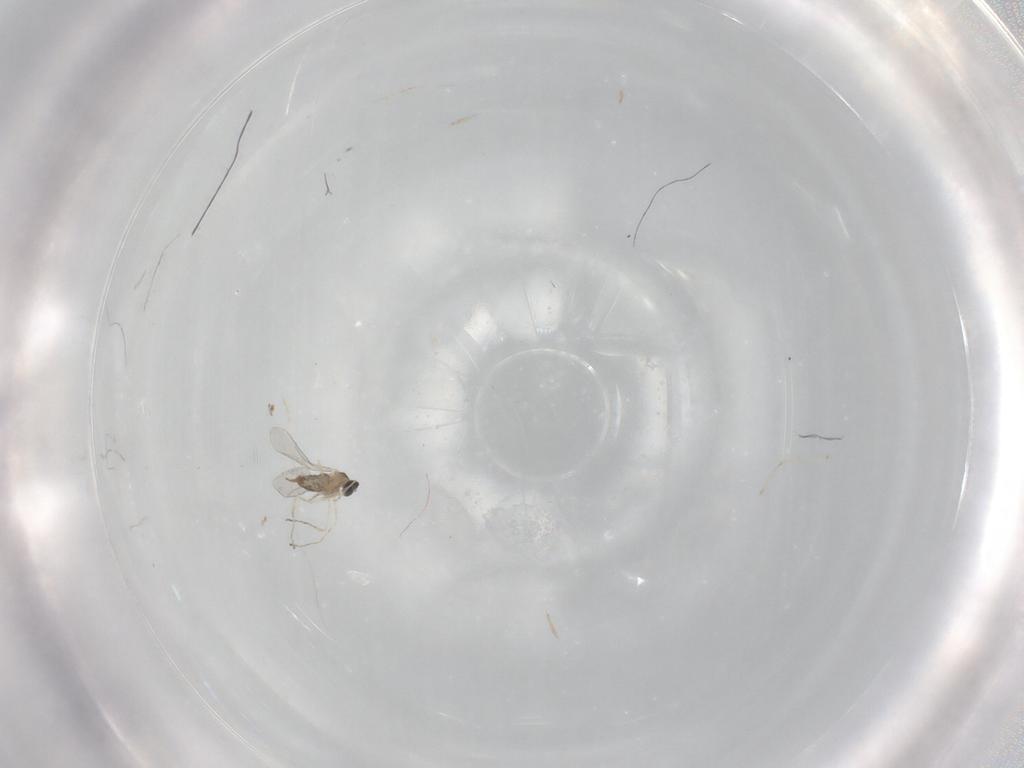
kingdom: Animalia
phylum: Arthropoda
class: Insecta
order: Diptera
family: Cecidomyiidae
